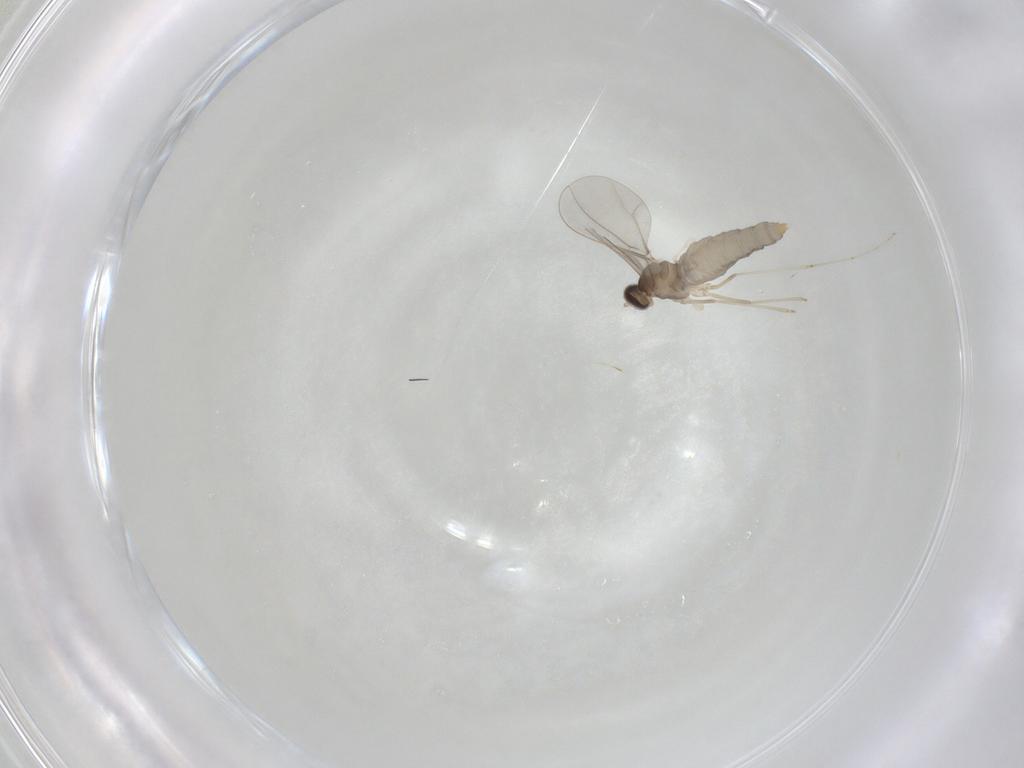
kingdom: Animalia
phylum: Arthropoda
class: Insecta
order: Diptera
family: Cecidomyiidae
